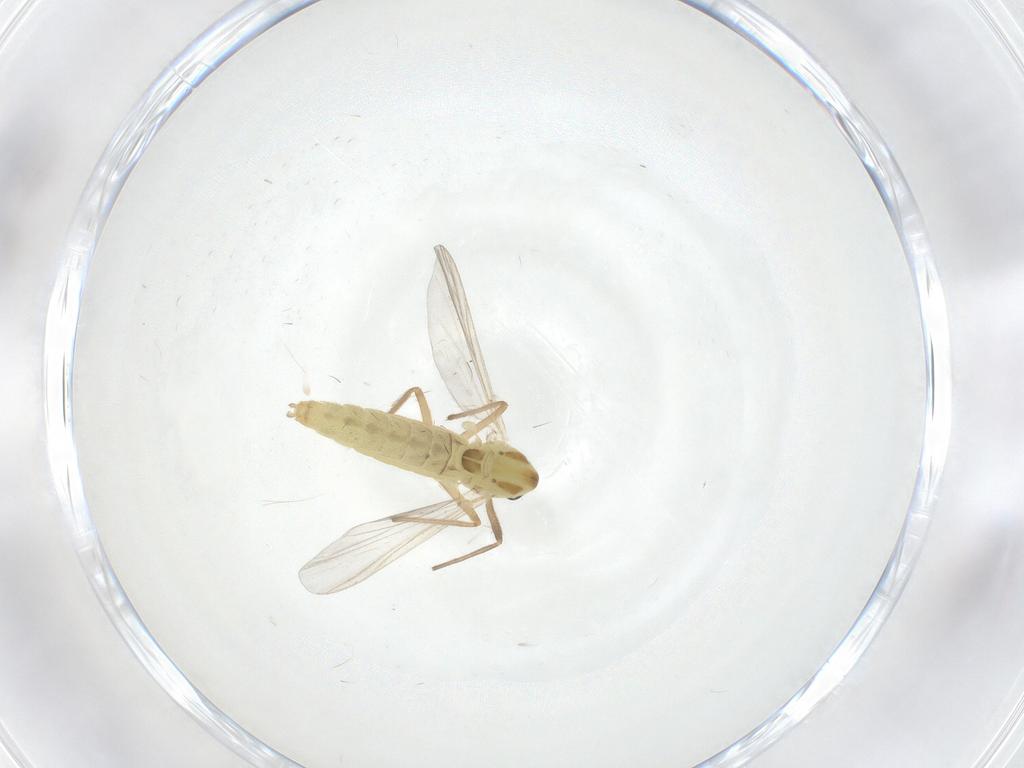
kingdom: Animalia
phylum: Arthropoda
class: Insecta
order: Diptera
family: Chironomidae
